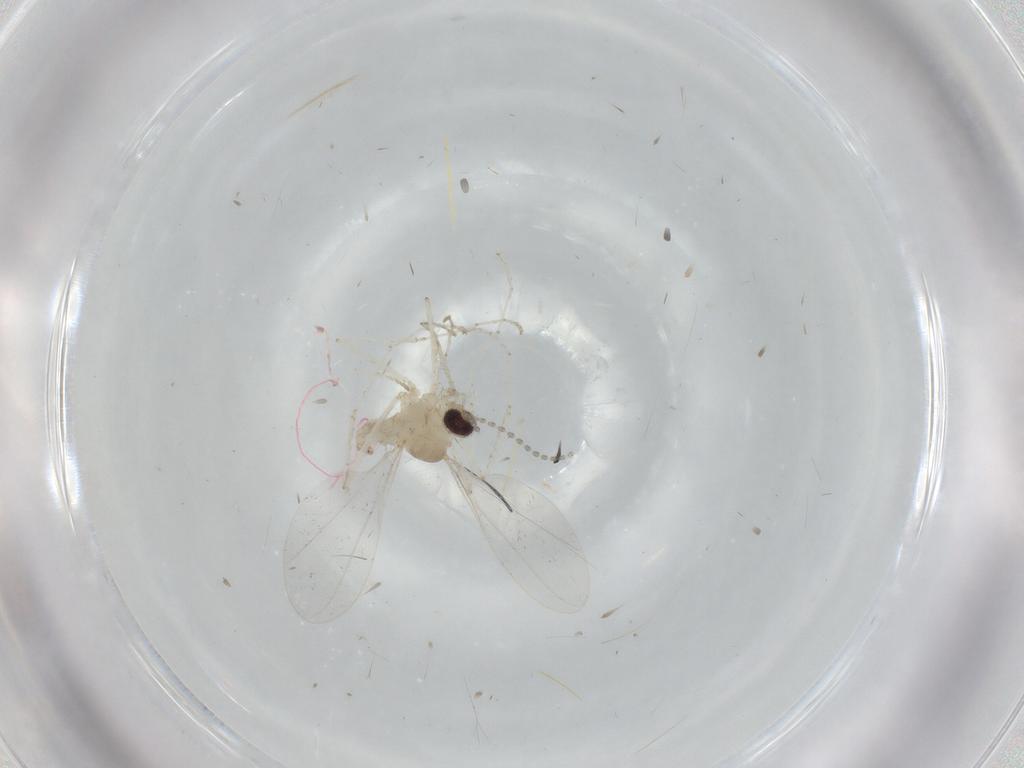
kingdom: Animalia
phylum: Arthropoda
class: Insecta
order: Diptera
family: Cecidomyiidae
